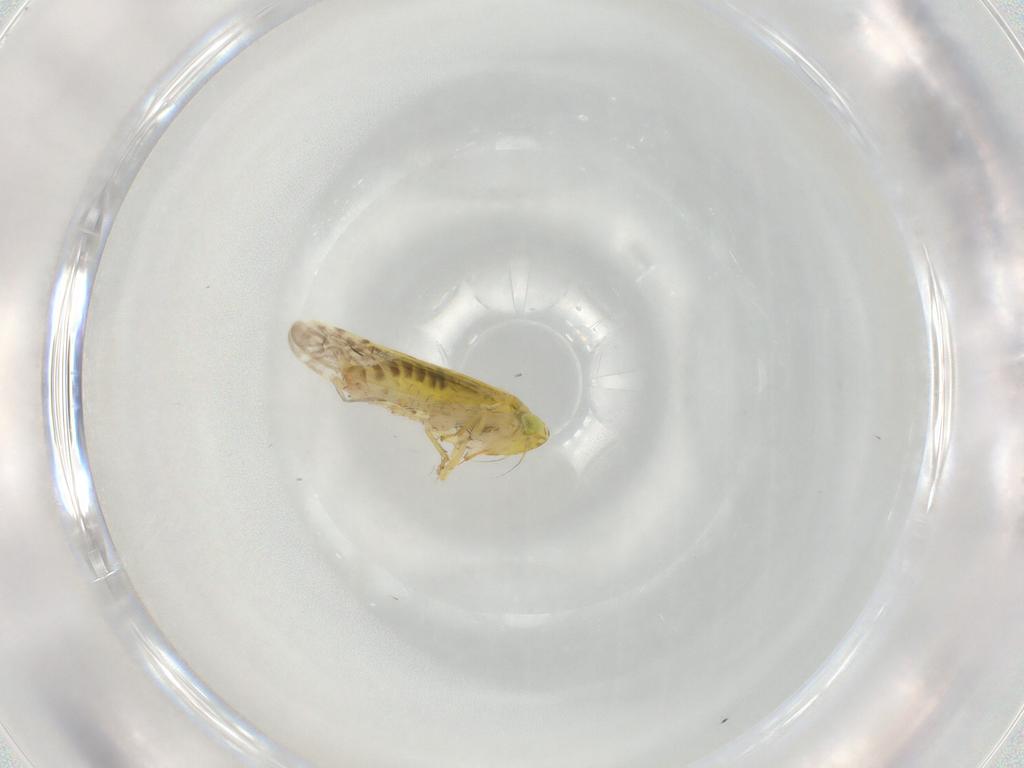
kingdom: Animalia
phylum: Arthropoda
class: Insecta
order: Hemiptera
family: Cicadellidae
